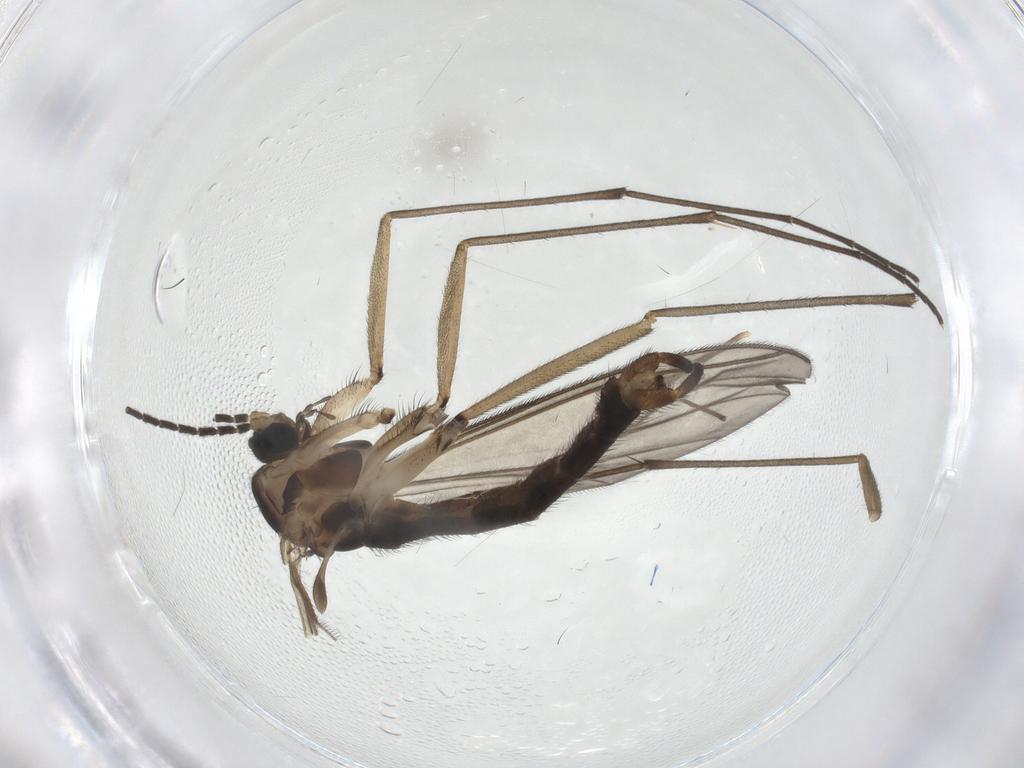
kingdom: Animalia
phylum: Arthropoda
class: Insecta
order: Diptera
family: Sciaridae
